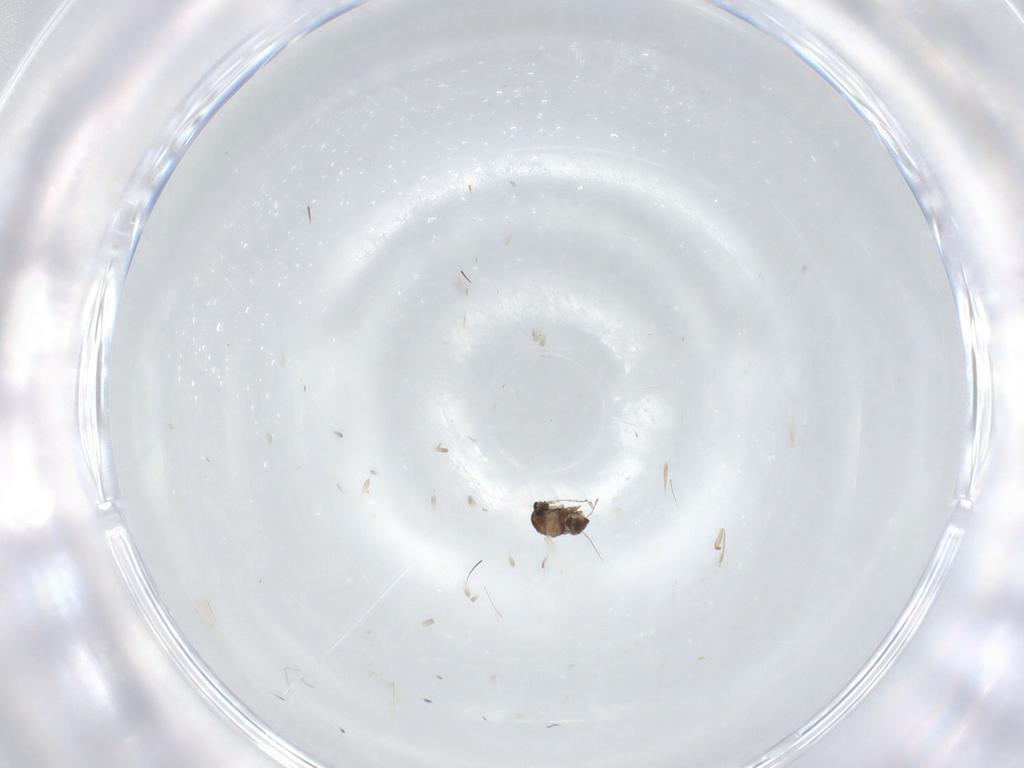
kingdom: Animalia
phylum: Arthropoda
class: Insecta
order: Diptera
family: Cecidomyiidae
